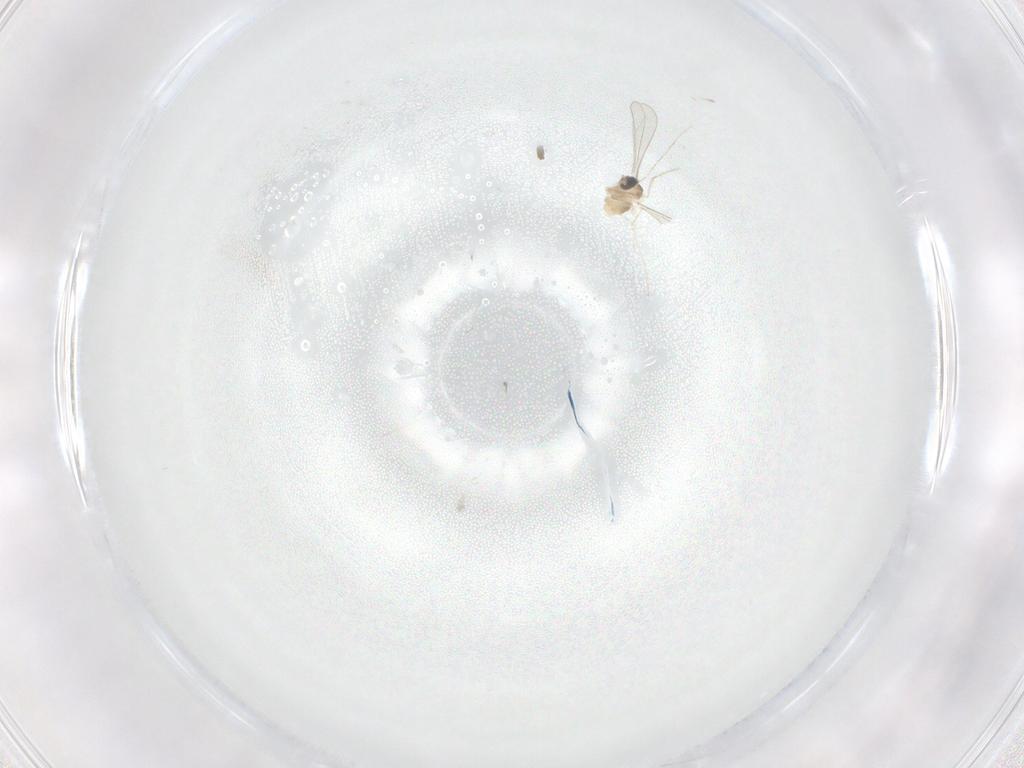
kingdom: Animalia
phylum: Arthropoda
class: Insecta
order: Diptera
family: Cecidomyiidae
